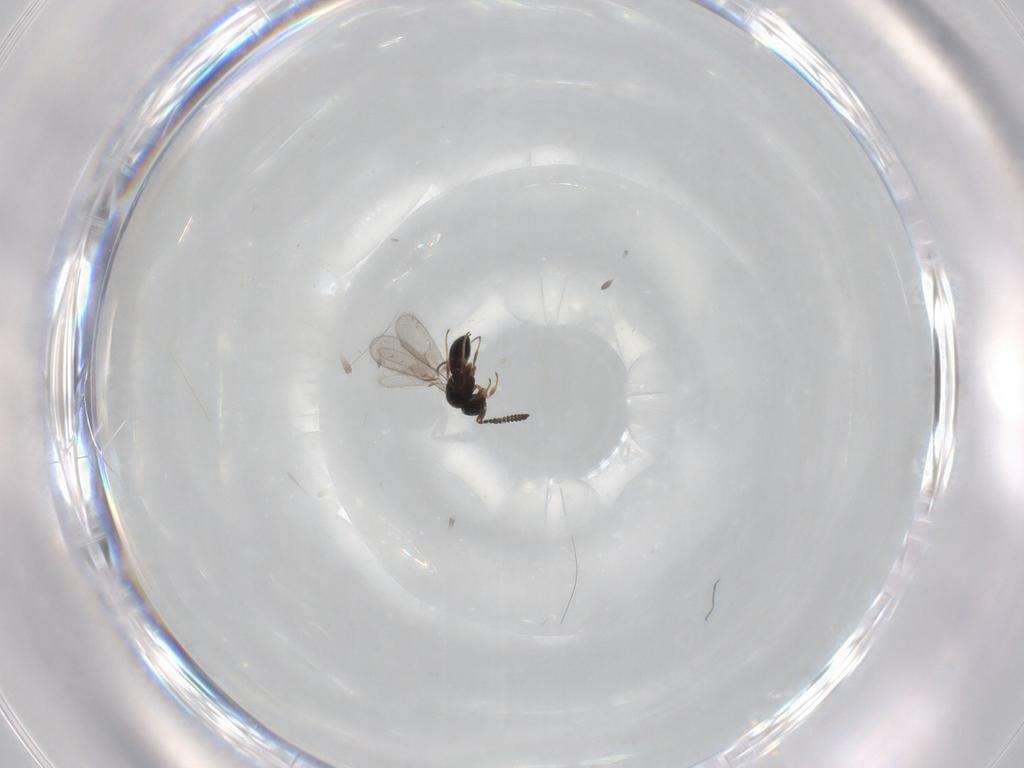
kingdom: Animalia
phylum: Arthropoda
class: Insecta
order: Hymenoptera
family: Scelionidae
